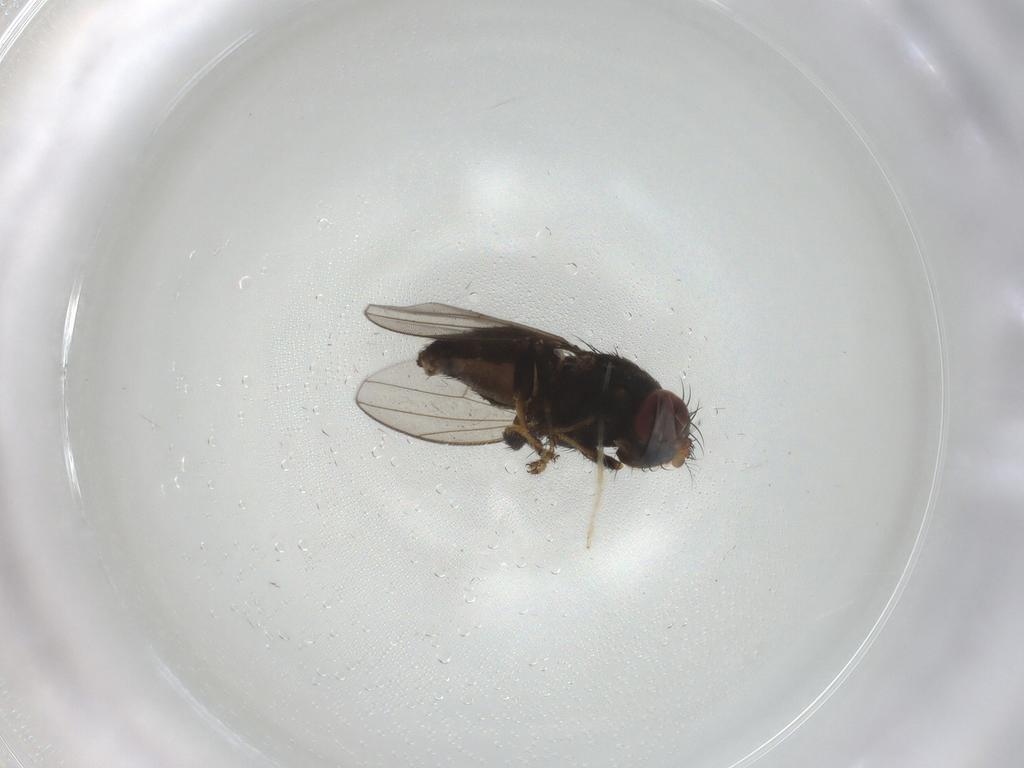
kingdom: Animalia
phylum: Arthropoda
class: Insecta
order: Diptera
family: Sciaridae
